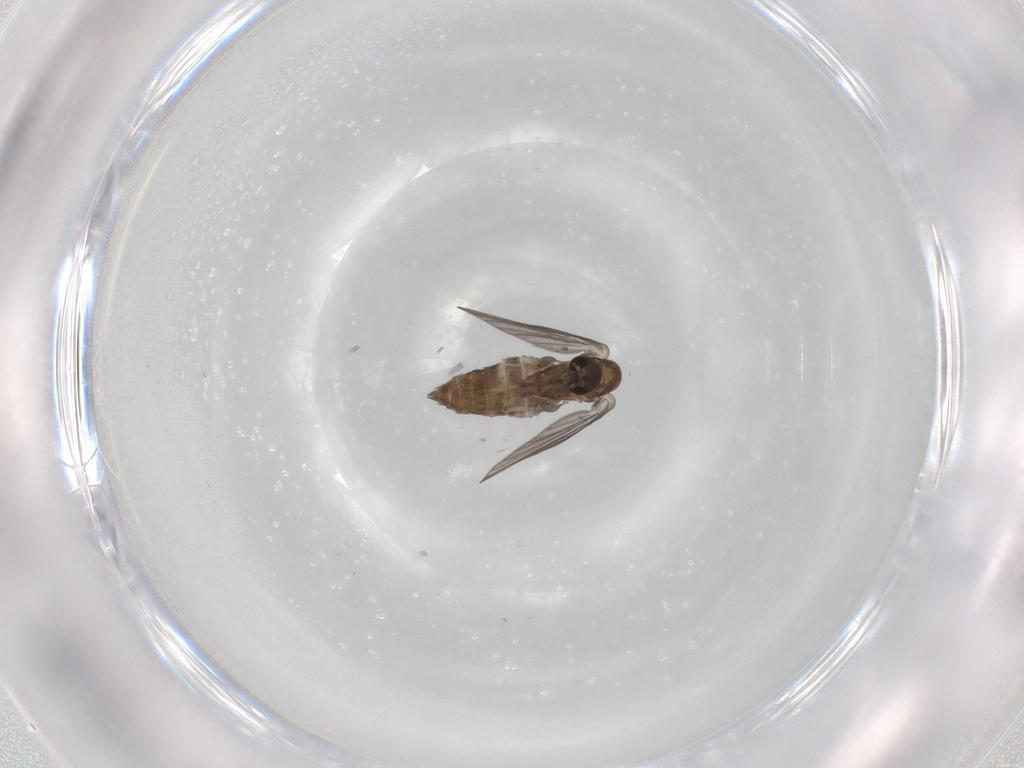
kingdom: Animalia
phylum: Arthropoda
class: Insecta
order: Diptera
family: Psychodidae
